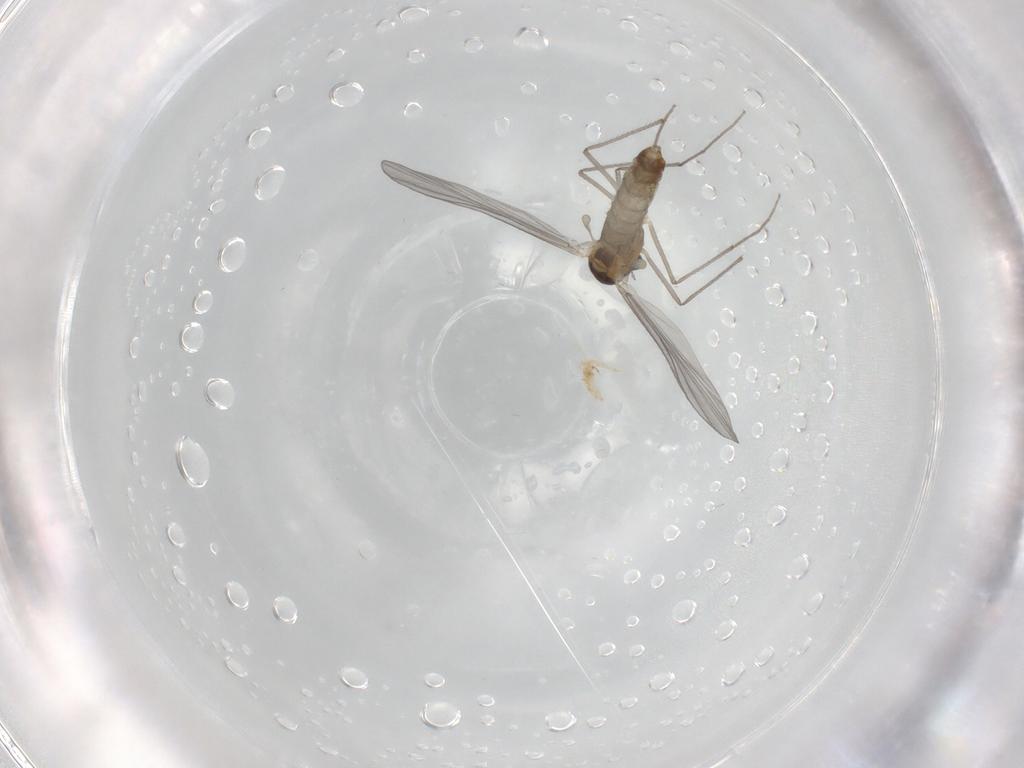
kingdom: Animalia
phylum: Arthropoda
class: Insecta
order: Diptera
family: Chironomidae
